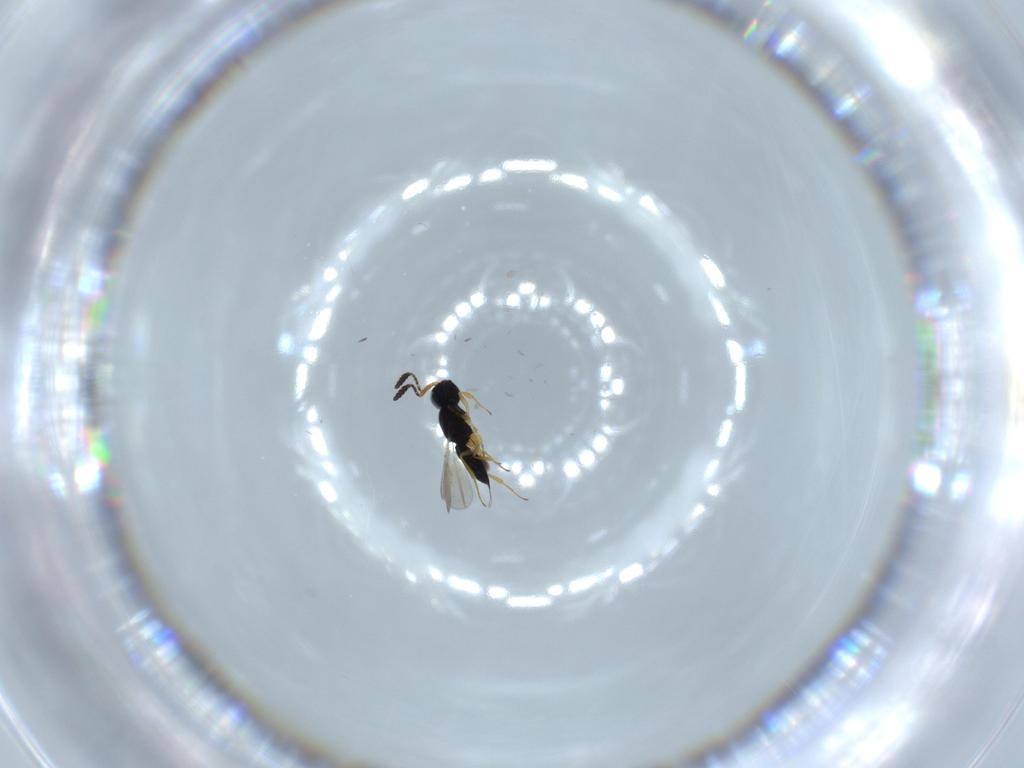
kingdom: Animalia
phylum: Arthropoda
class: Insecta
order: Hymenoptera
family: Scelionidae
